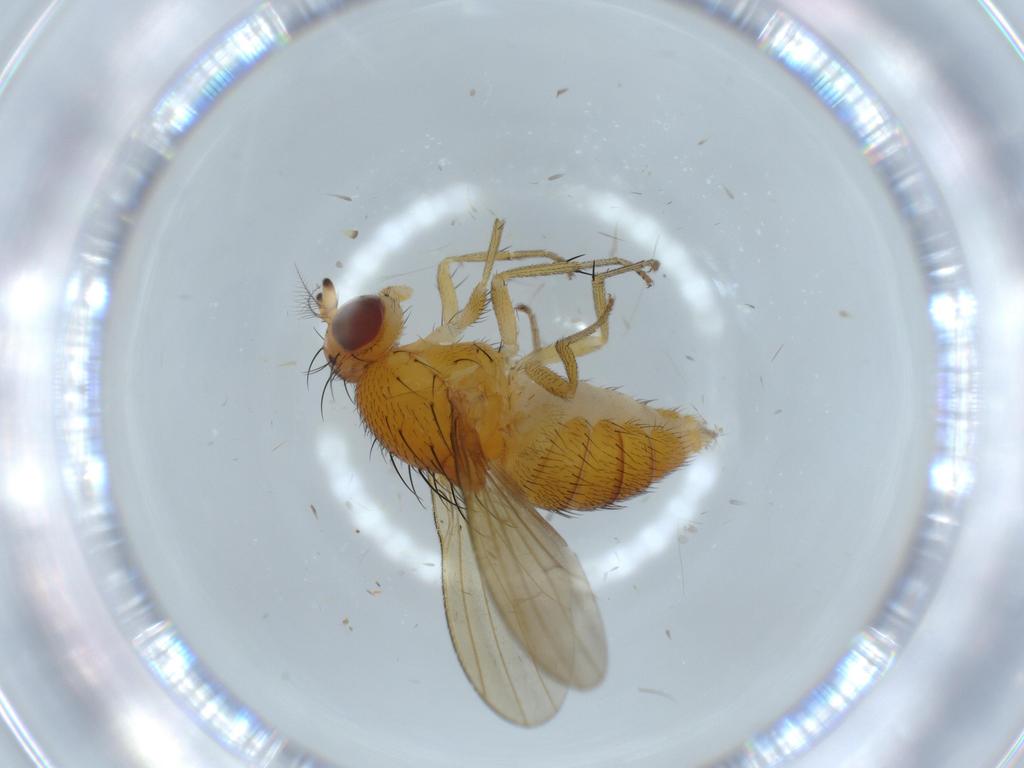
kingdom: Animalia
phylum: Arthropoda
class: Insecta
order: Diptera
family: Lauxaniidae
